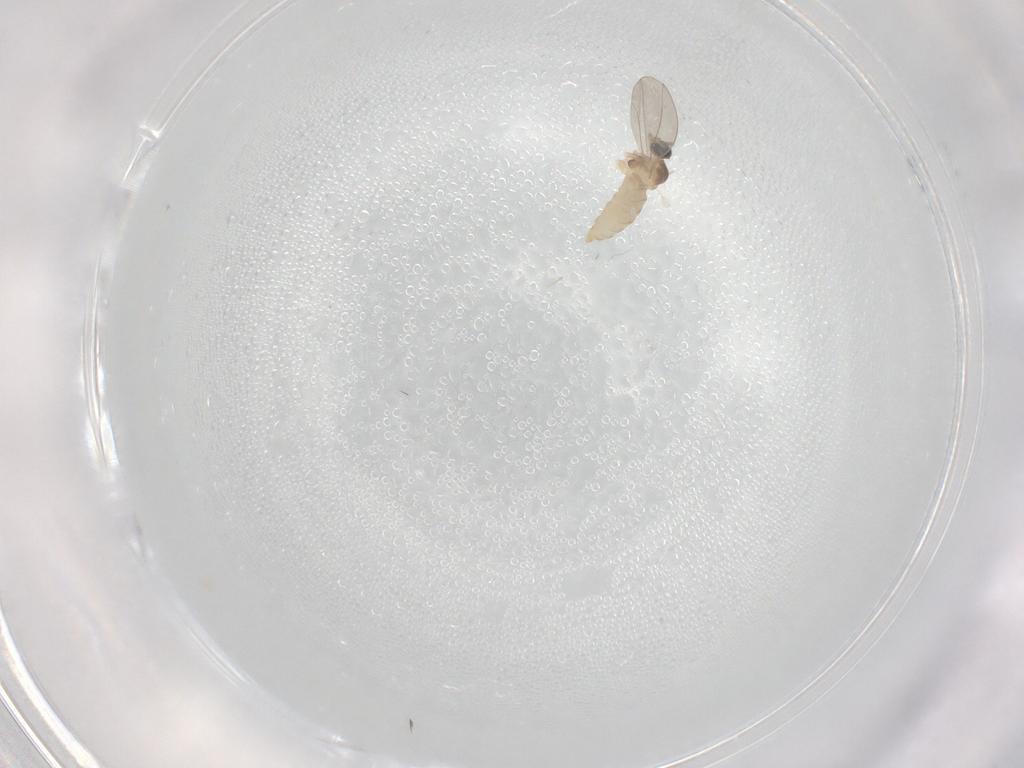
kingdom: Animalia
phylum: Arthropoda
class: Insecta
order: Diptera
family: Cecidomyiidae
